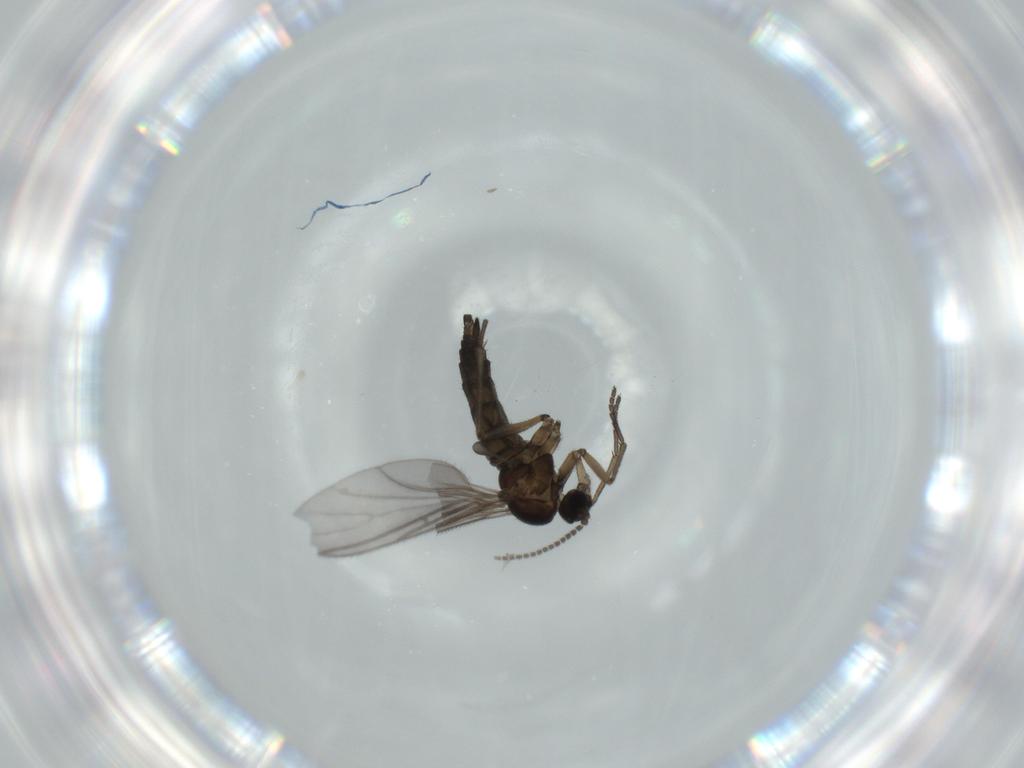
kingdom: Animalia
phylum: Arthropoda
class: Insecta
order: Diptera
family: Sciaridae
